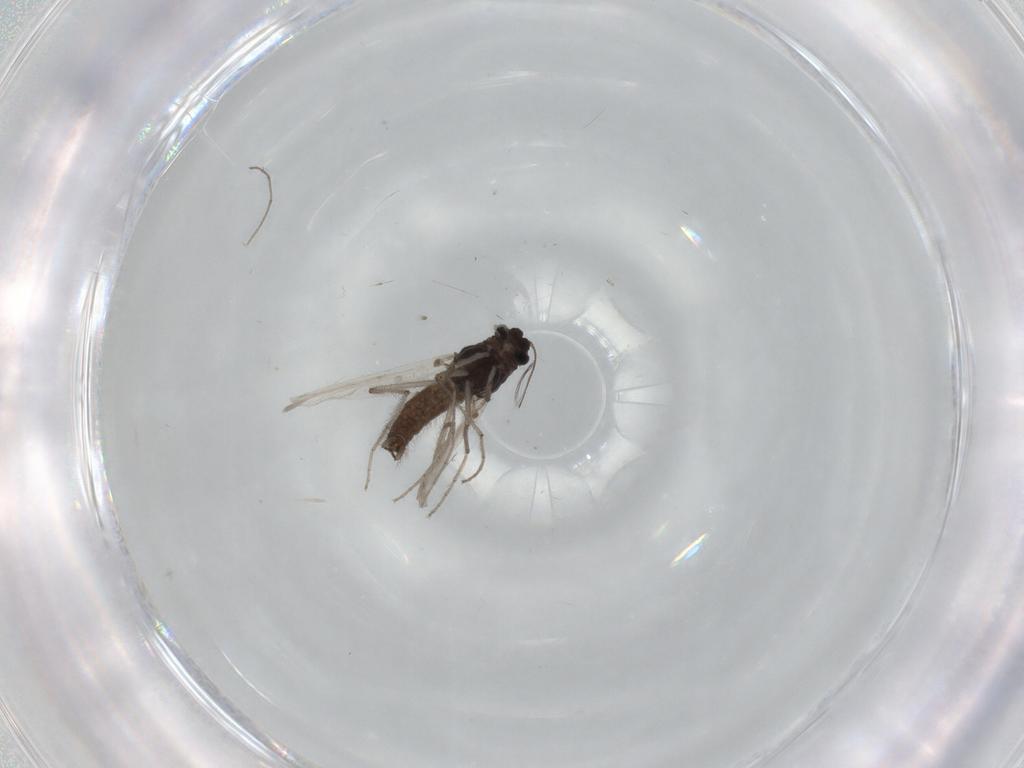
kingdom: Animalia
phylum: Arthropoda
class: Insecta
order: Diptera
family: Chironomidae
